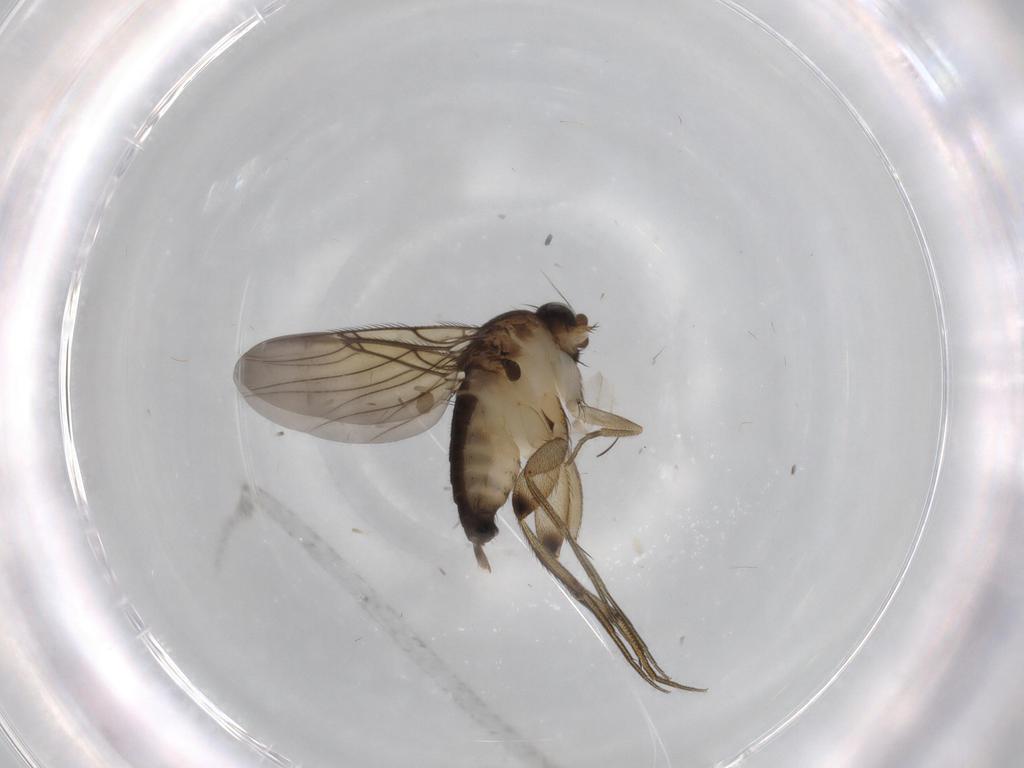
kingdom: Animalia
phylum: Arthropoda
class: Insecta
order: Diptera
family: Cecidomyiidae
